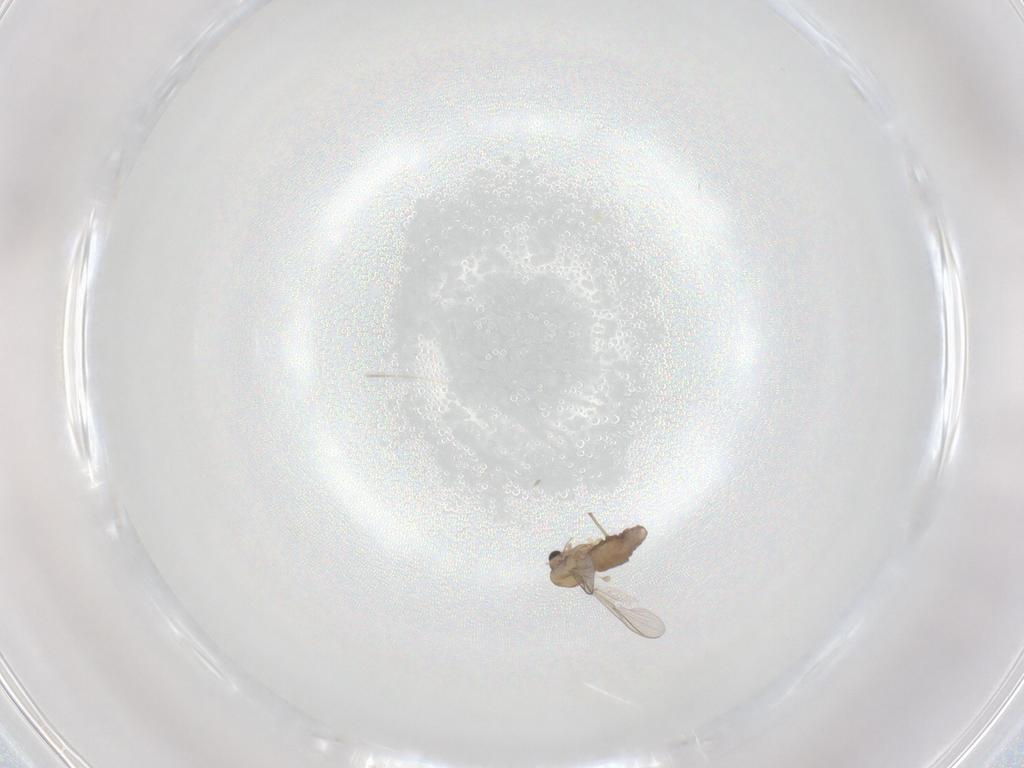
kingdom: Animalia
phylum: Arthropoda
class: Insecta
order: Diptera
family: Chironomidae
